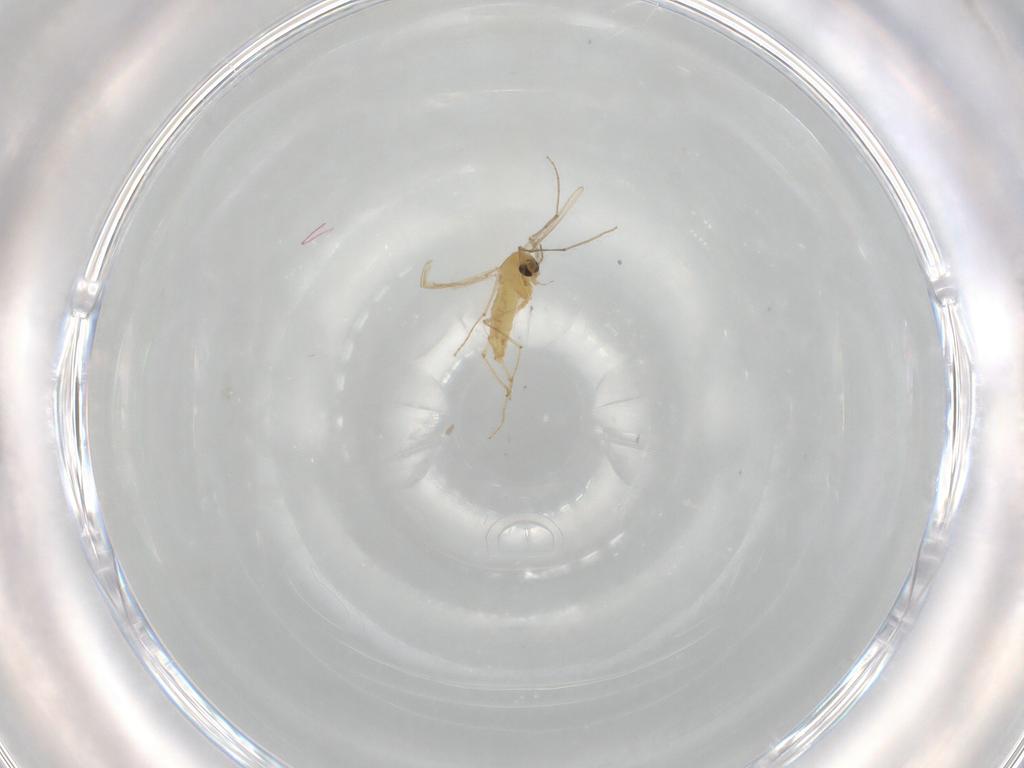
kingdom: Animalia
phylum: Arthropoda
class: Insecta
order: Diptera
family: Chironomidae
